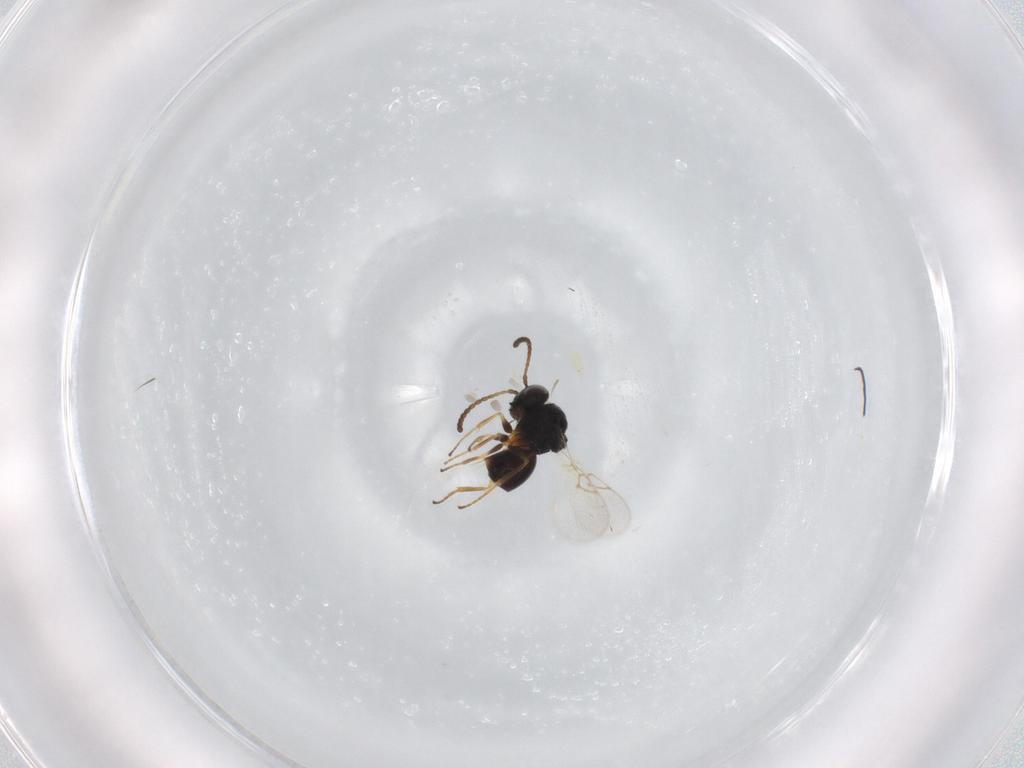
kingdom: Animalia
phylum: Arthropoda
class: Insecta
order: Hymenoptera
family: Figitidae
